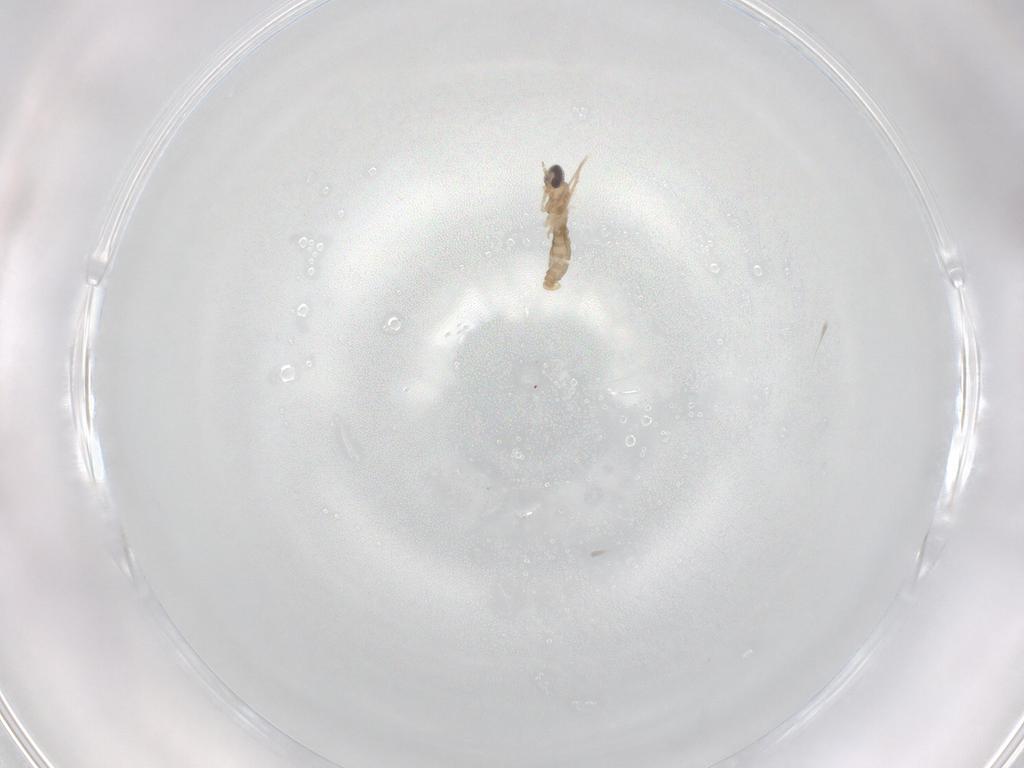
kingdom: Animalia
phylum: Arthropoda
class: Insecta
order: Diptera
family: Cecidomyiidae
